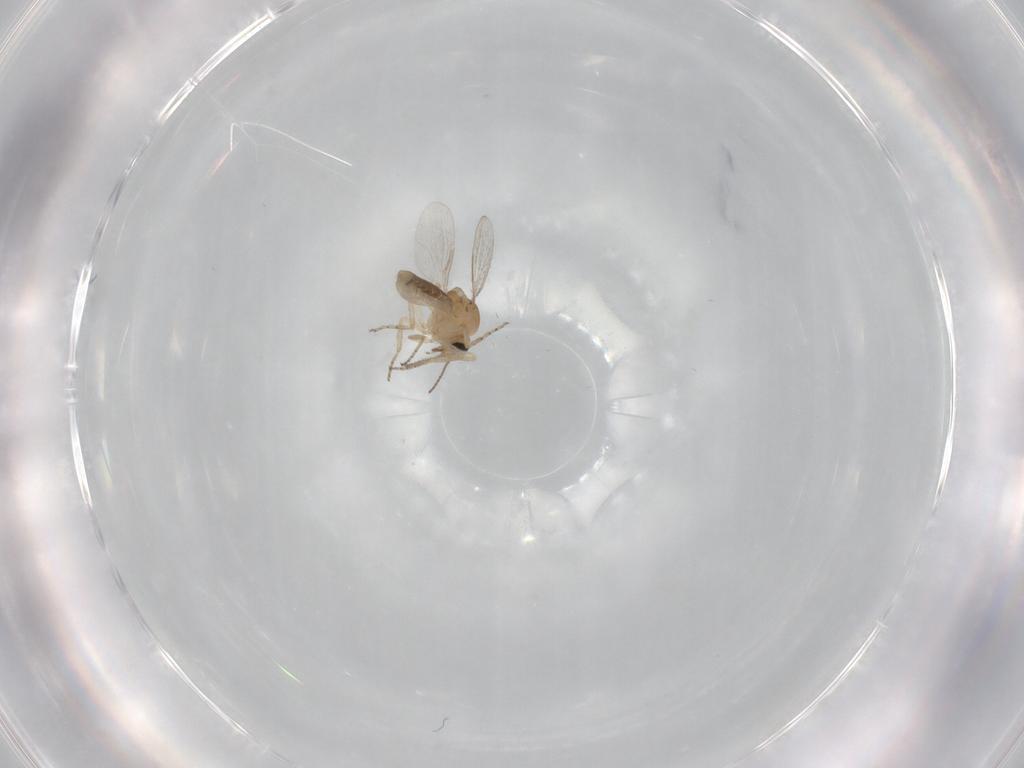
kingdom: Animalia
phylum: Arthropoda
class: Insecta
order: Diptera
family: Ceratopogonidae
